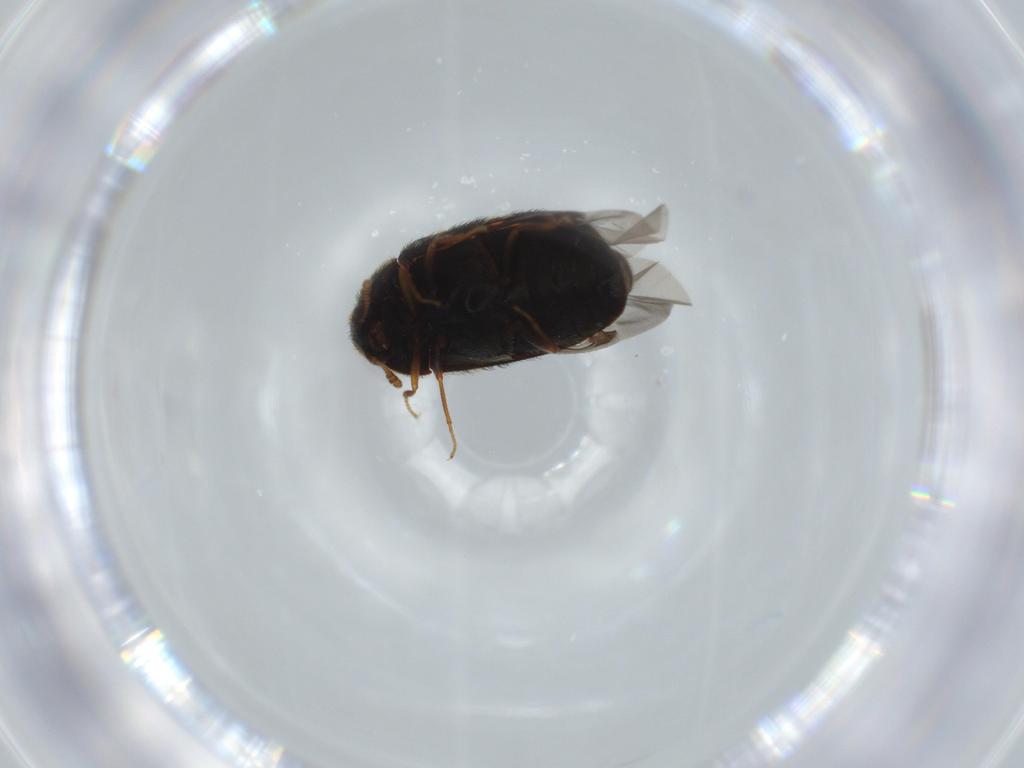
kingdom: Animalia
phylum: Arthropoda
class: Insecta
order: Coleoptera
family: Dermestidae
